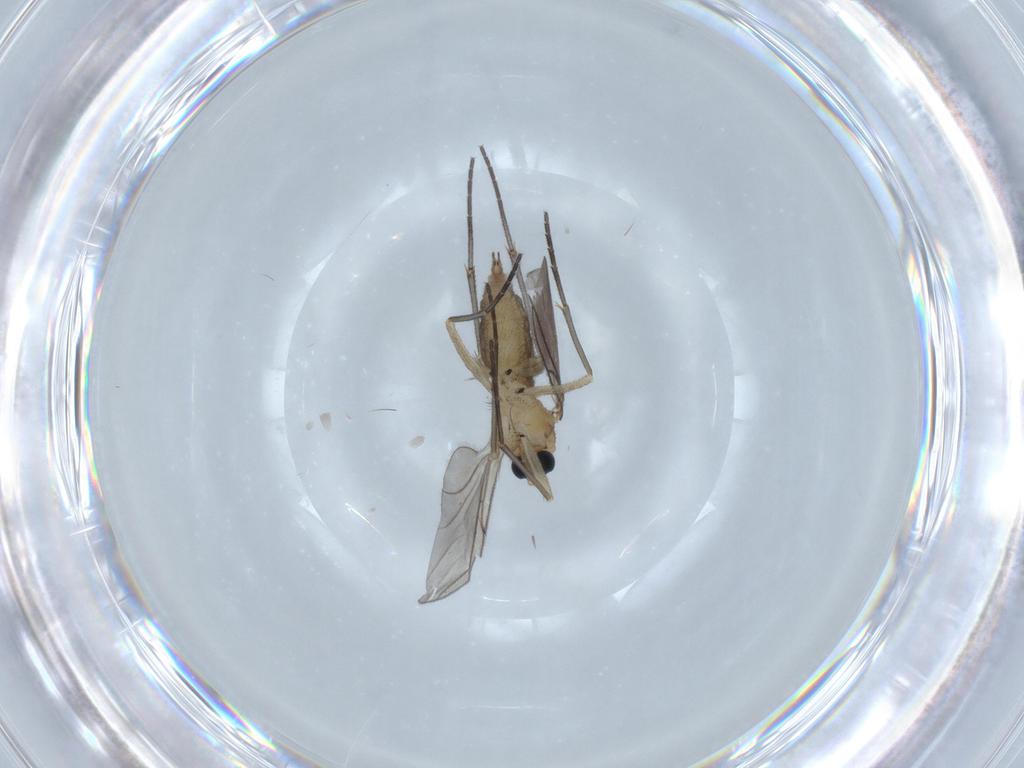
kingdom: Animalia
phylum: Arthropoda
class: Insecta
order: Diptera
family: Sciaridae
